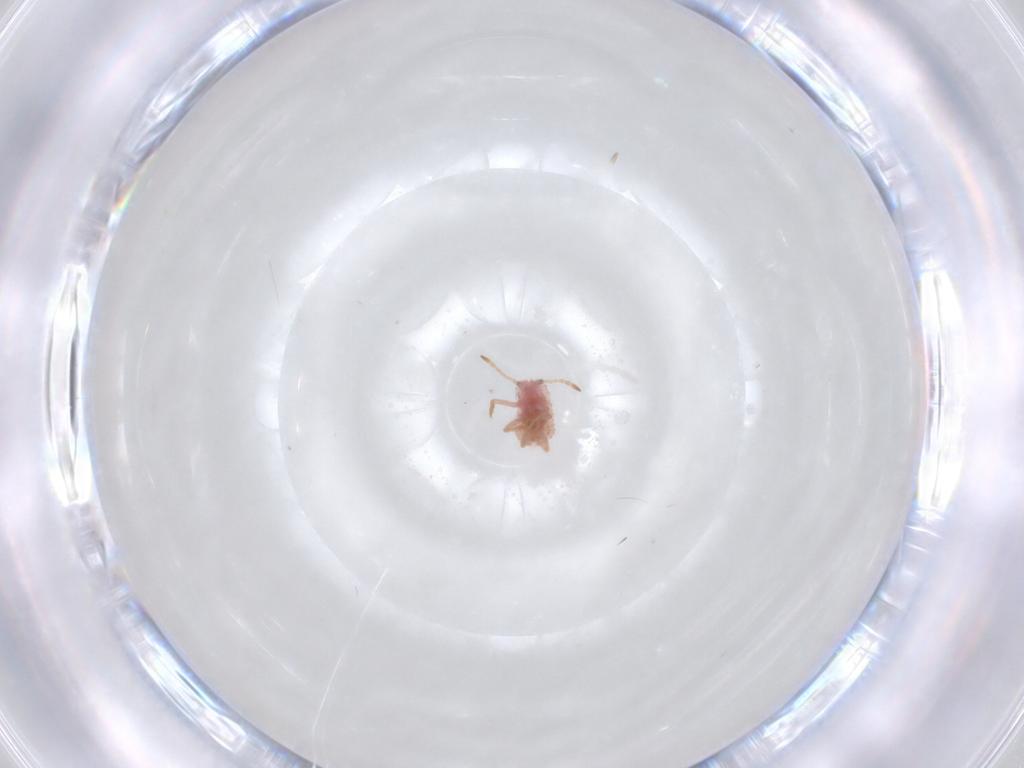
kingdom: Animalia
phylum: Arthropoda
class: Insecta
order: Hemiptera
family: Coccoidea_incertae_sedis
